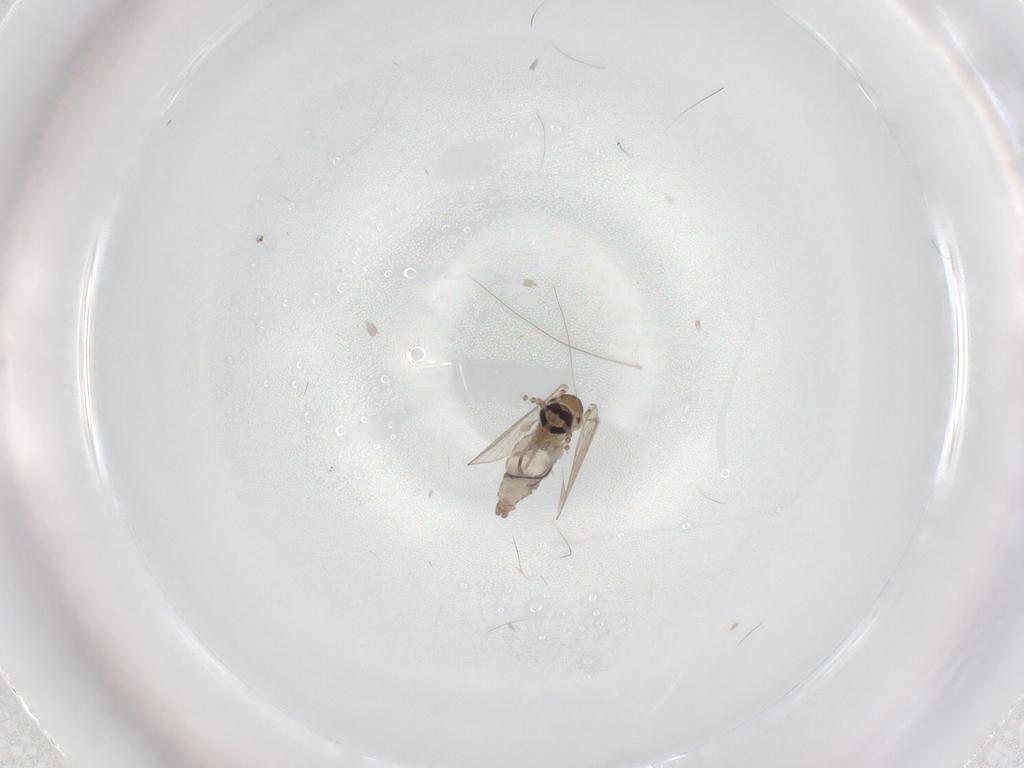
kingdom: Animalia
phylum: Arthropoda
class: Insecta
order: Diptera
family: Psychodidae
